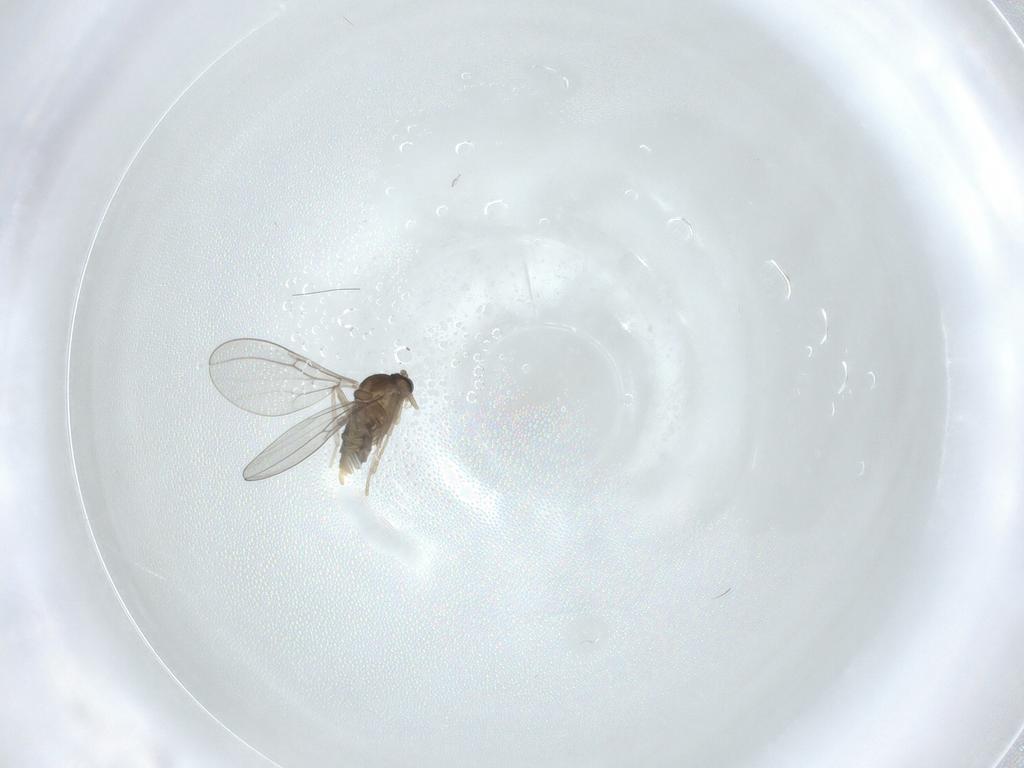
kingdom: Animalia
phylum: Arthropoda
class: Insecta
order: Diptera
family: Cecidomyiidae
